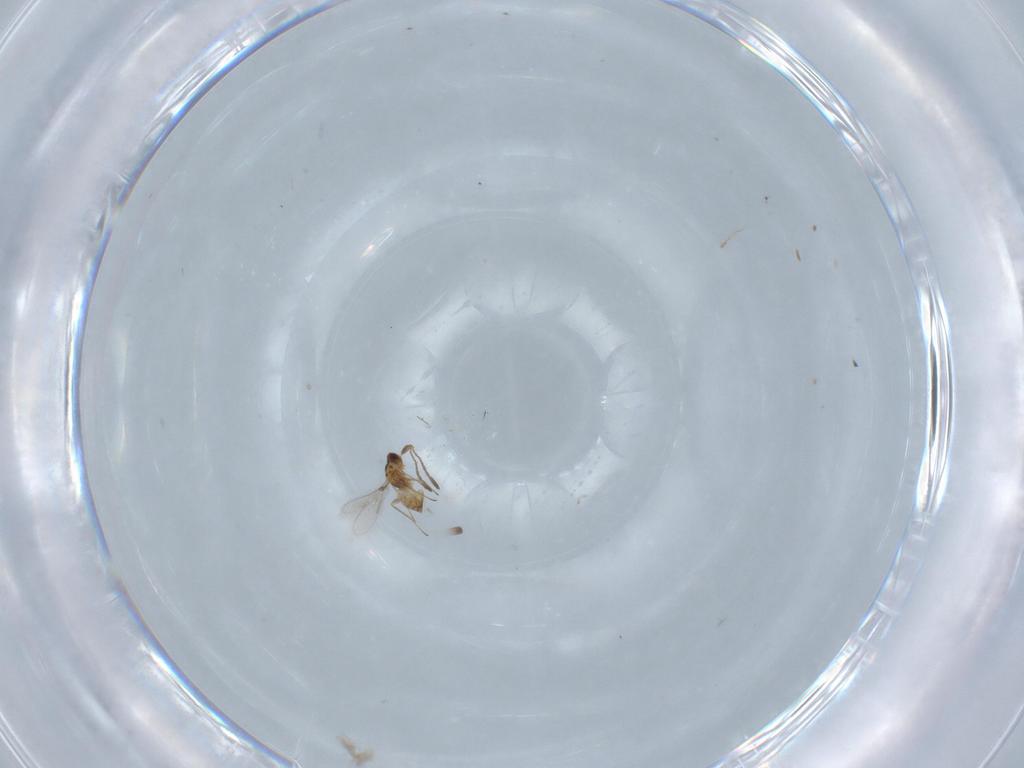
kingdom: Animalia
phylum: Arthropoda
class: Insecta
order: Hymenoptera
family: Mymaridae
